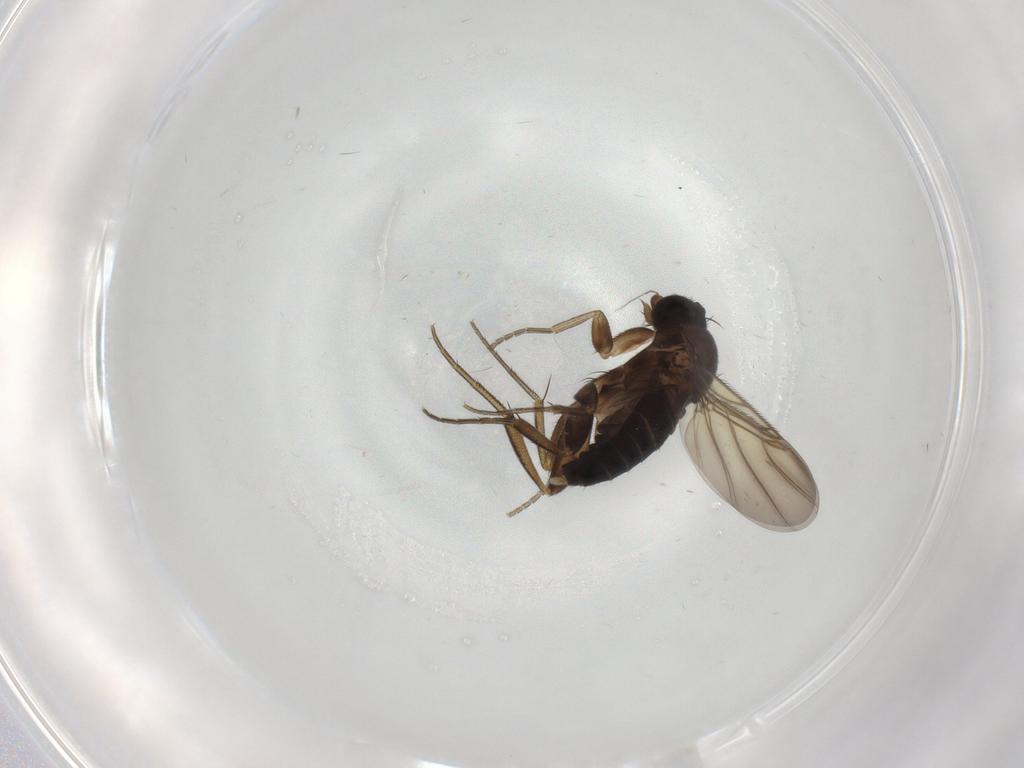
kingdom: Animalia
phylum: Arthropoda
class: Insecta
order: Diptera
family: Phoridae
